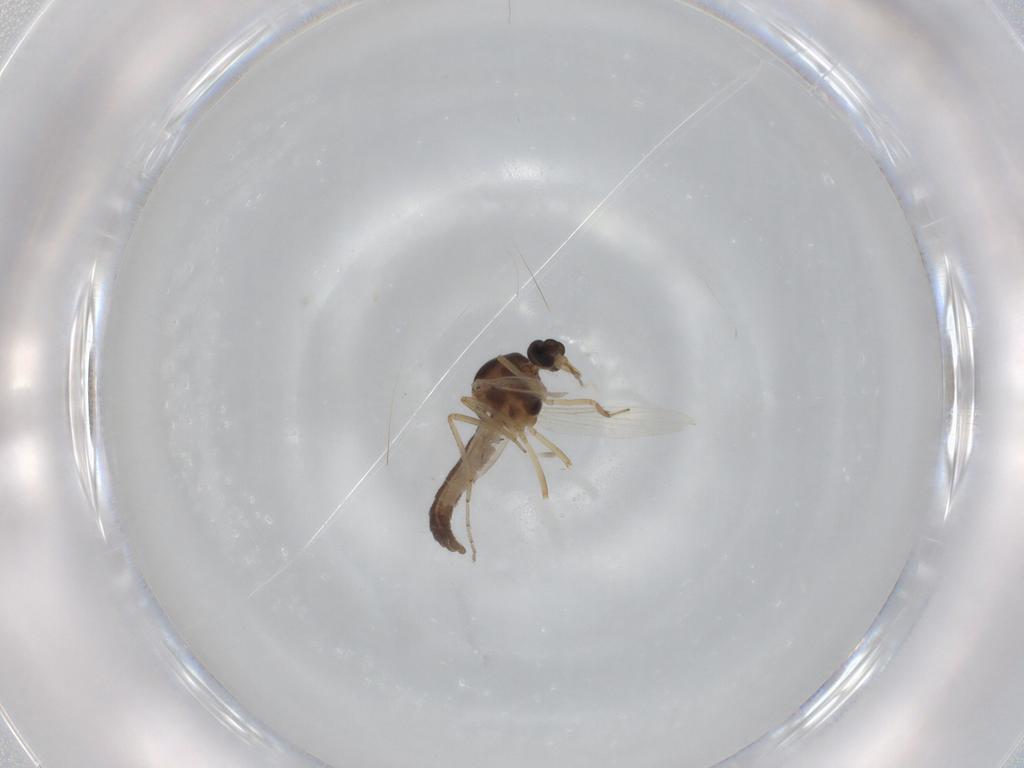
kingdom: Animalia
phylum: Arthropoda
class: Insecta
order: Diptera
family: Ceratopogonidae
